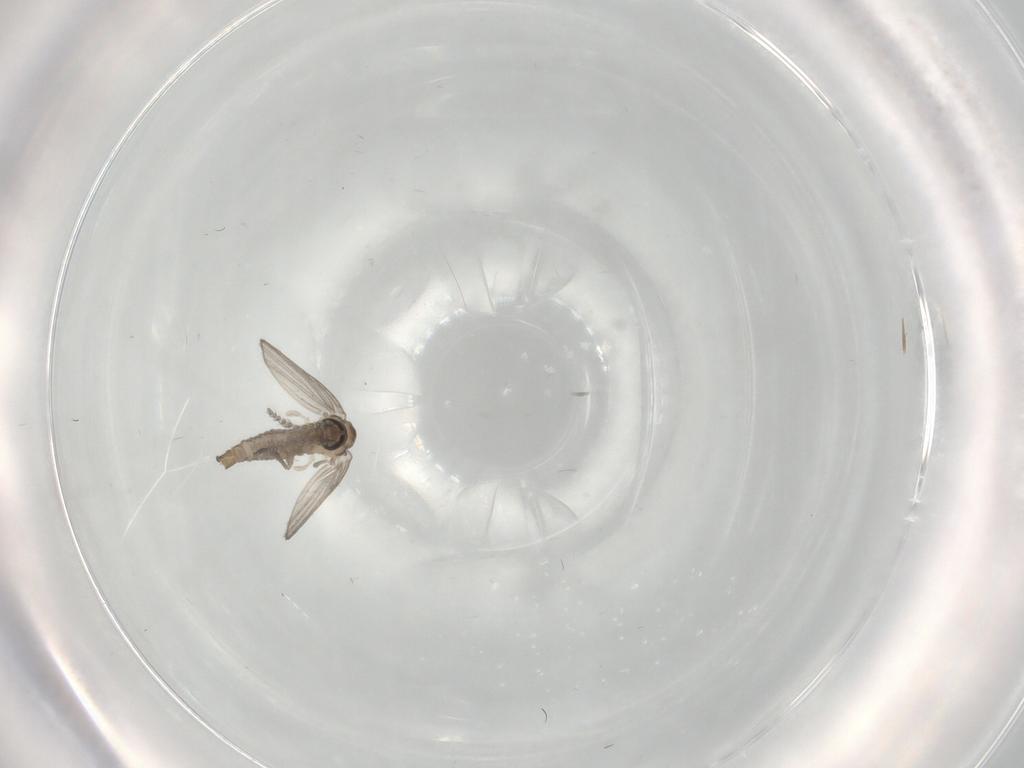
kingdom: Animalia
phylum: Arthropoda
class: Insecta
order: Diptera
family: Psychodidae
